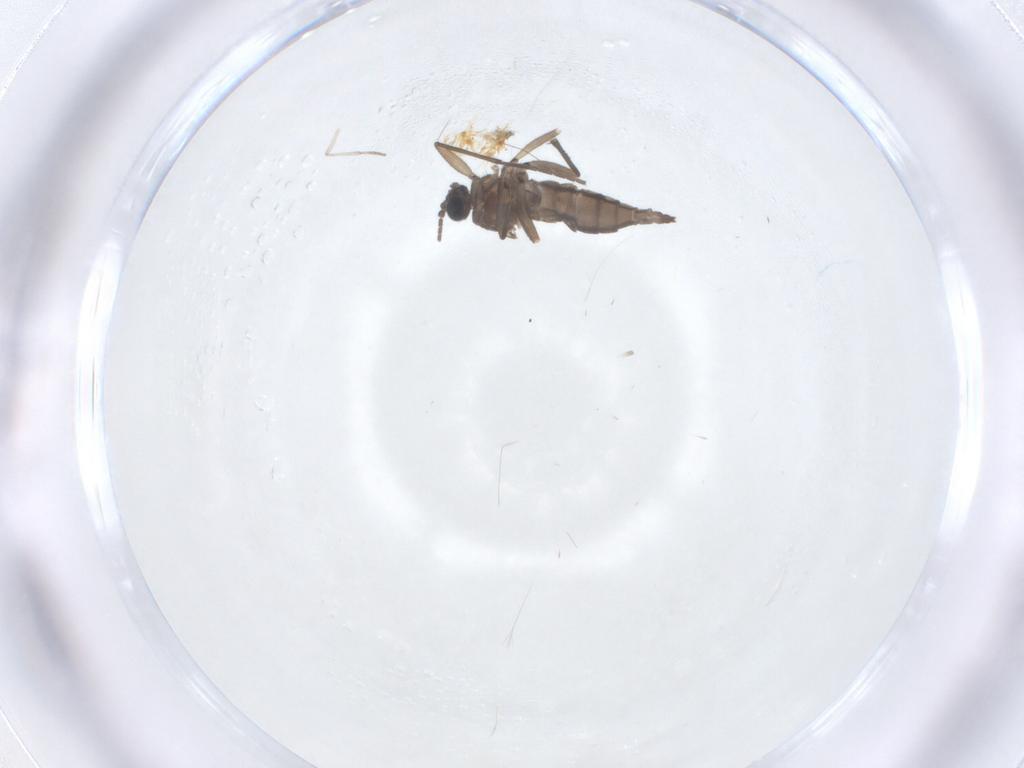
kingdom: Animalia
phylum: Arthropoda
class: Insecta
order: Diptera
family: Psychodidae
